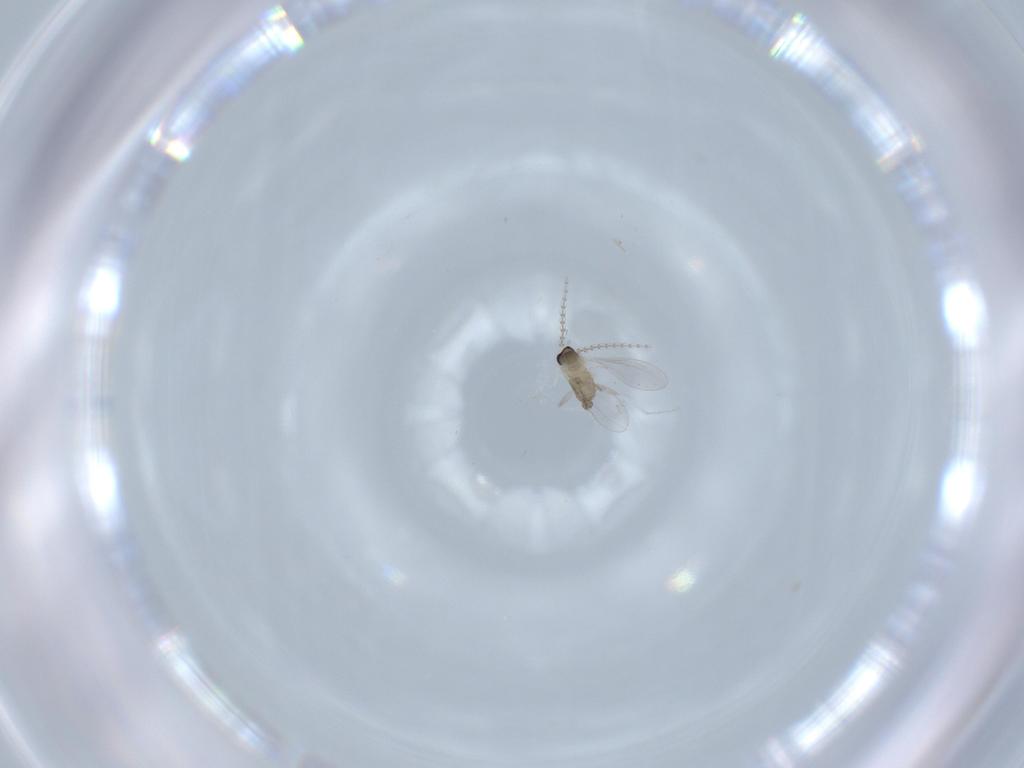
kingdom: Animalia
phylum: Arthropoda
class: Insecta
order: Diptera
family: Cecidomyiidae
